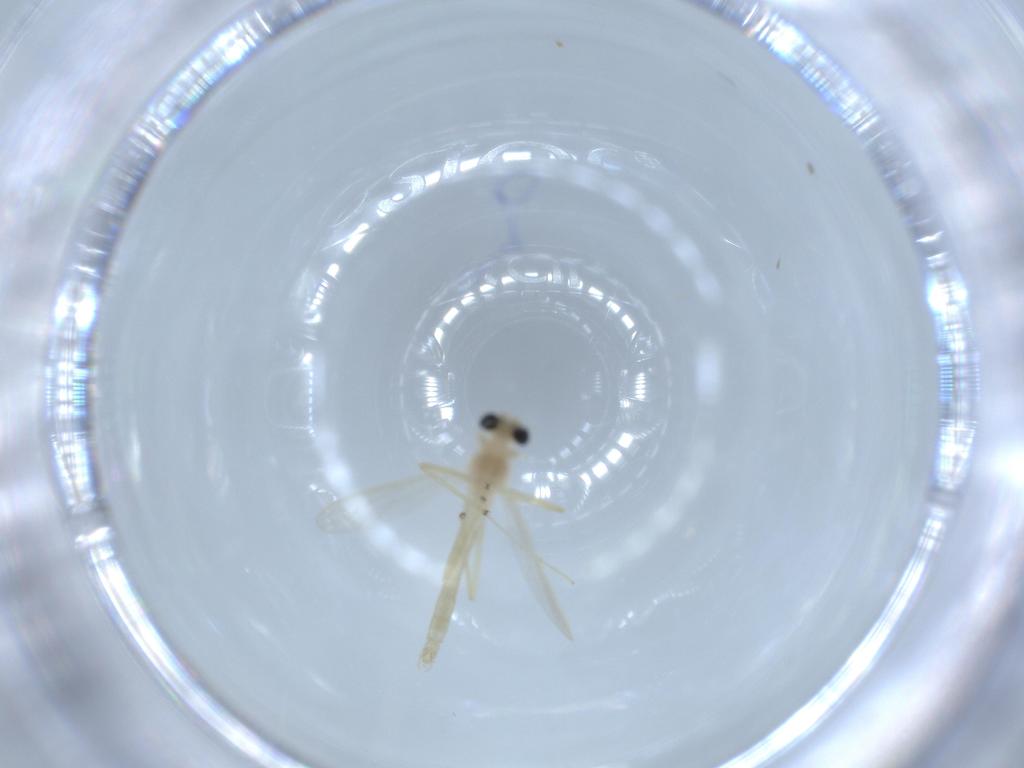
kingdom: Animalia
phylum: Arthropoda
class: Insecta
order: Diptera
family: Chironomidae
